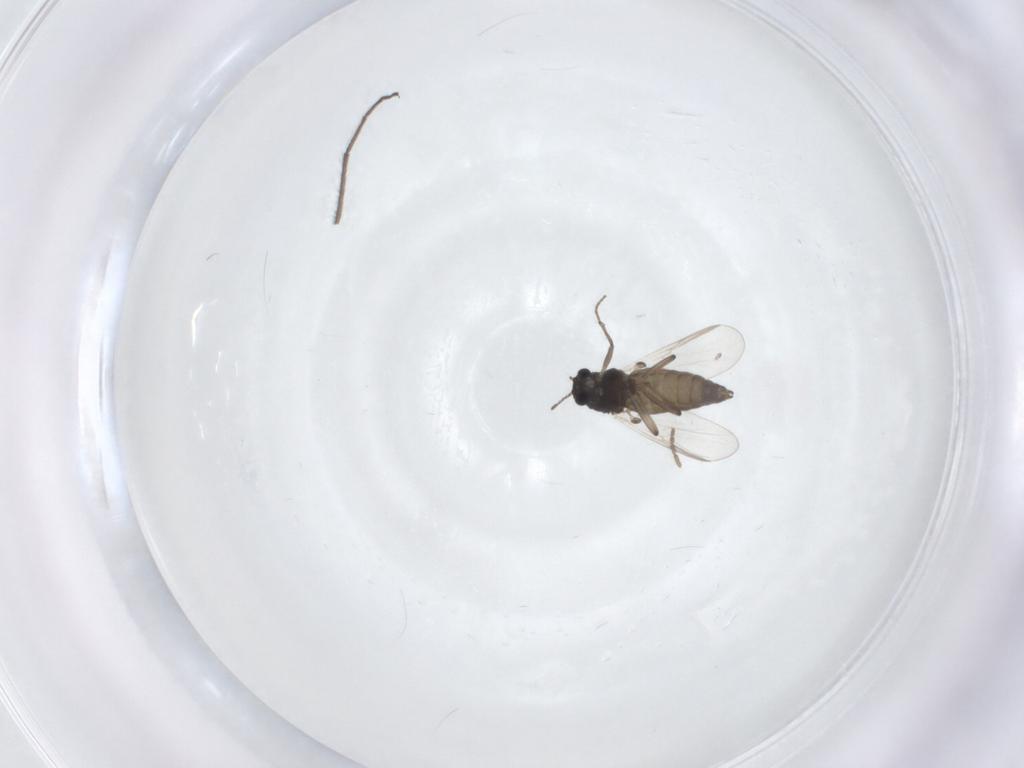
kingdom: Animalia
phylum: Arthropoda
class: Insecta
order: Diptera
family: Chironomidae
